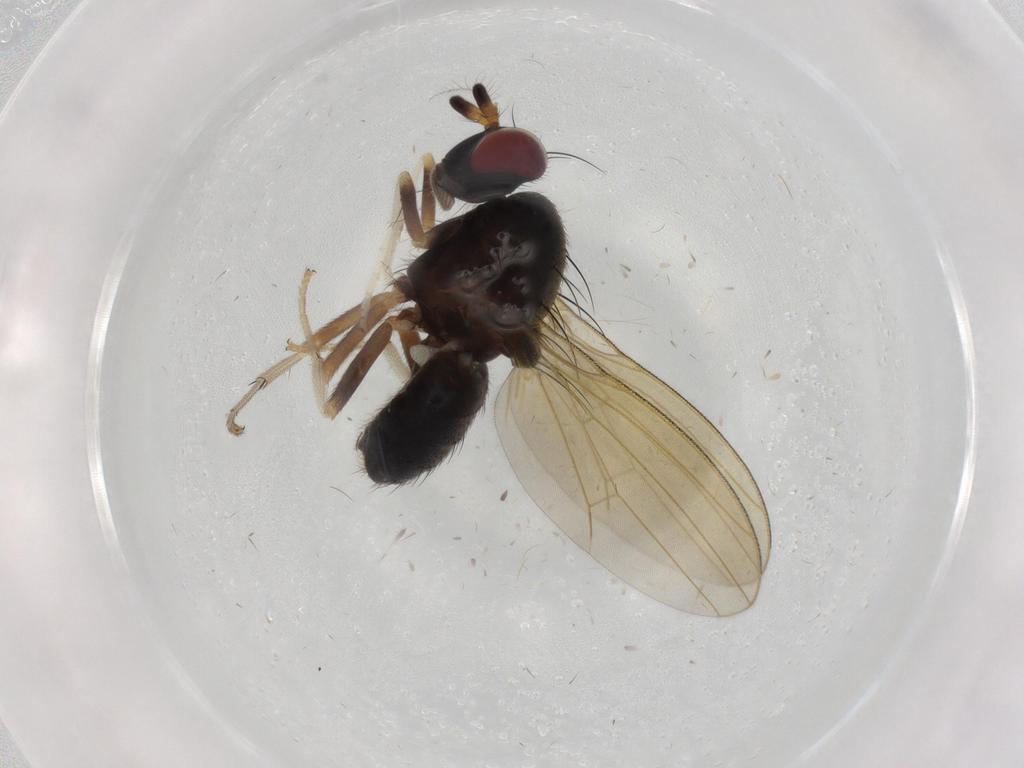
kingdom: Animalia
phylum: Arthropoda
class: Insecta
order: Diptera
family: Lauxaniidae
